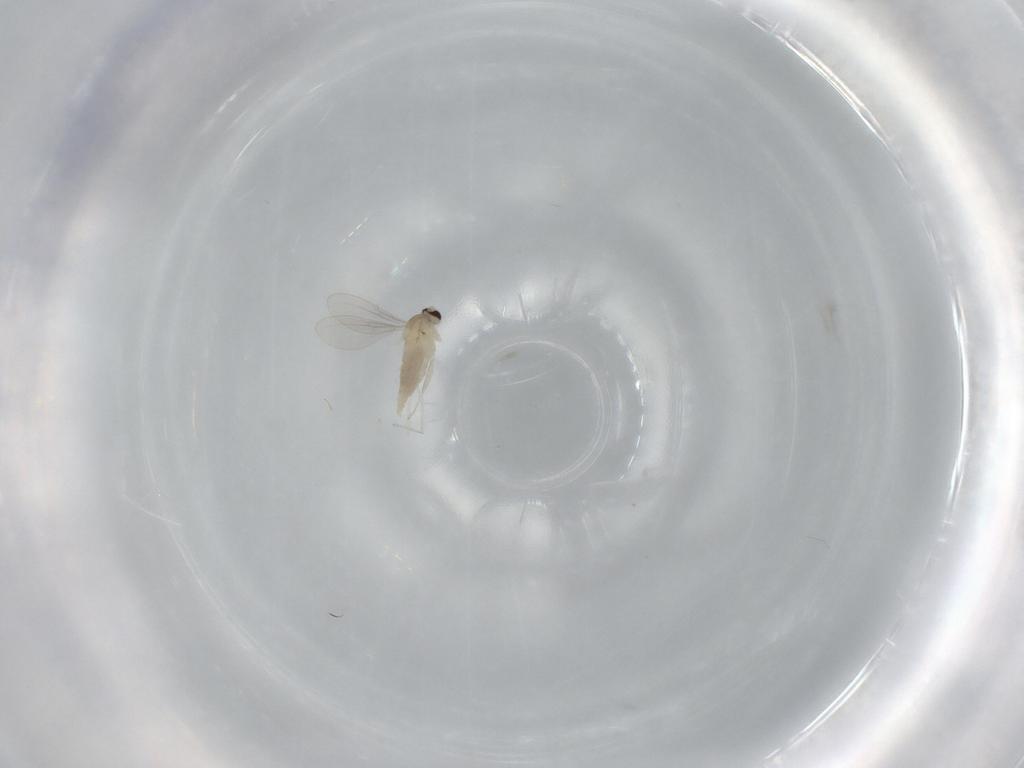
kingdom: Animalia
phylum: Arthropoda
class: Insecta
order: Diptera
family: Cecidomyiidae
